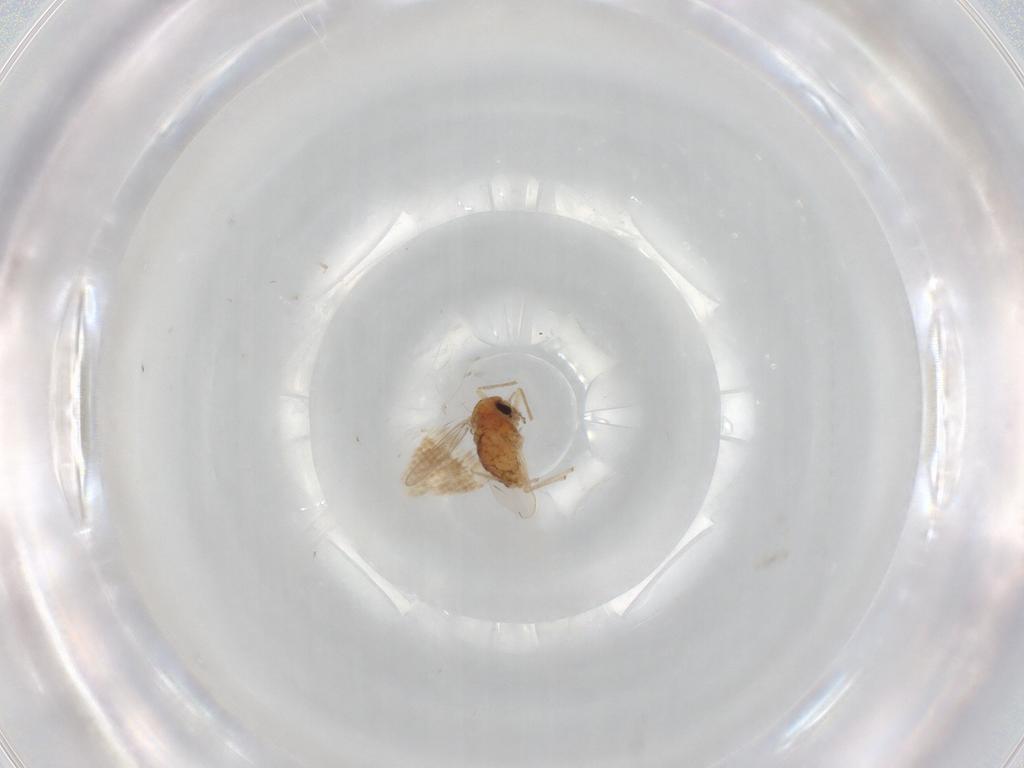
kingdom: Animalia
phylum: Arthropoda
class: Insecta
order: Diptera
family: Chironomidae
